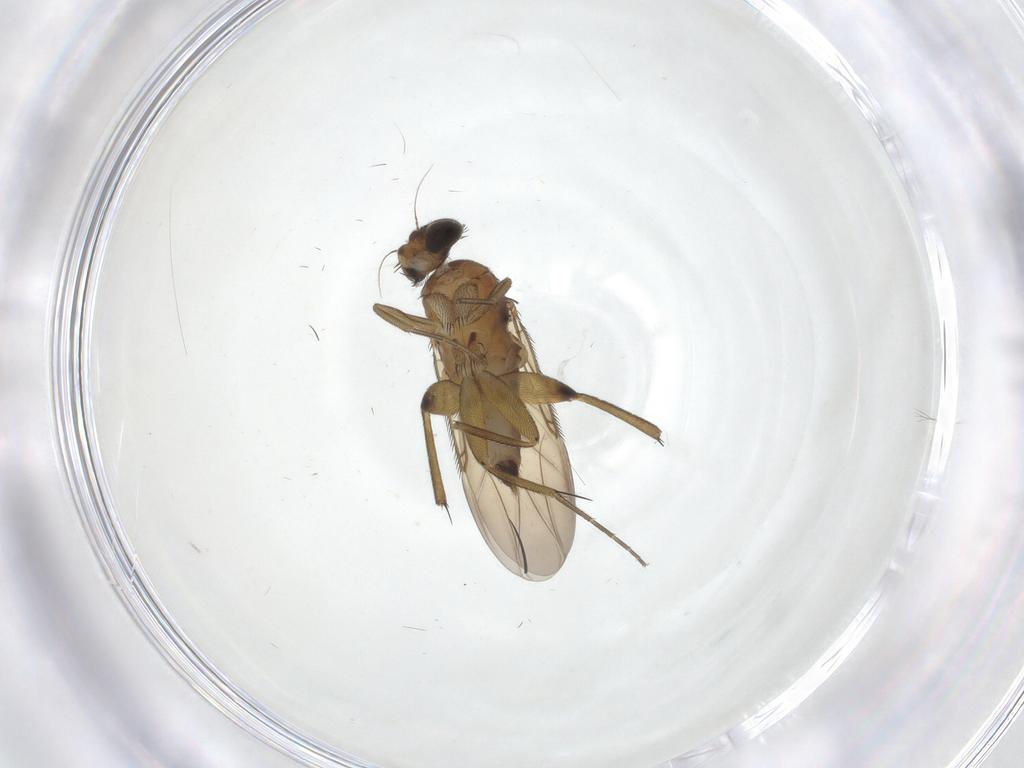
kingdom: Animalia
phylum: Arthropoda
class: Insecta
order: Diptera
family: Phoridae
